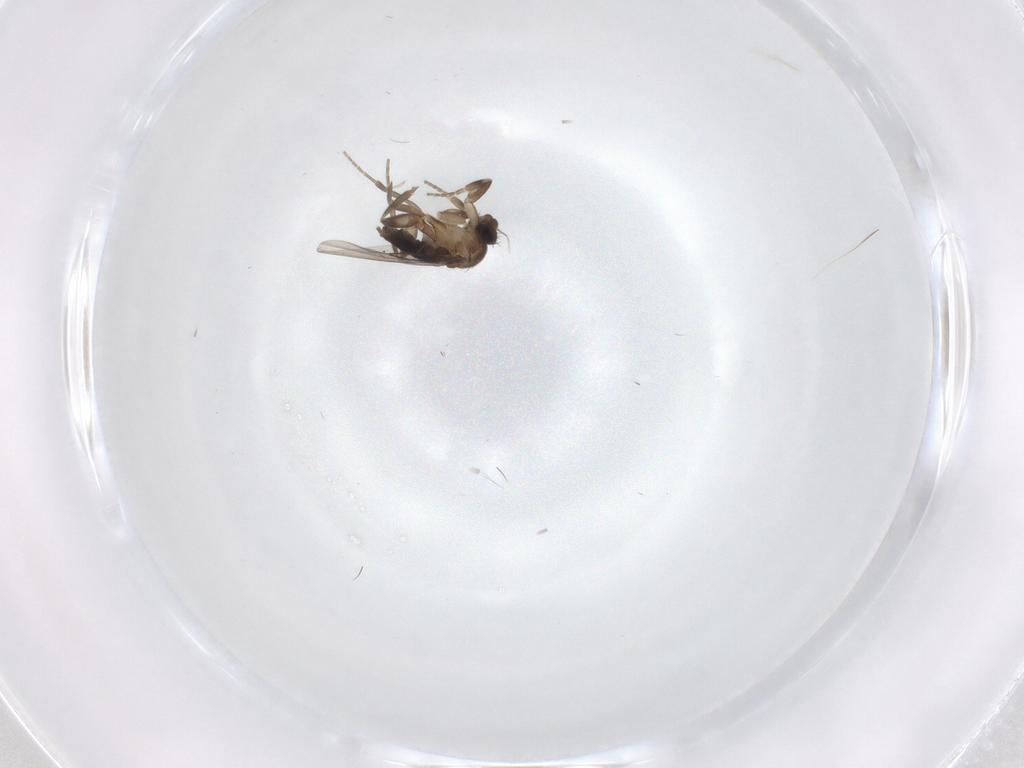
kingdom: Animalia
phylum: Arthropoda
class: Insecta
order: Diptera
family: Phoridae
